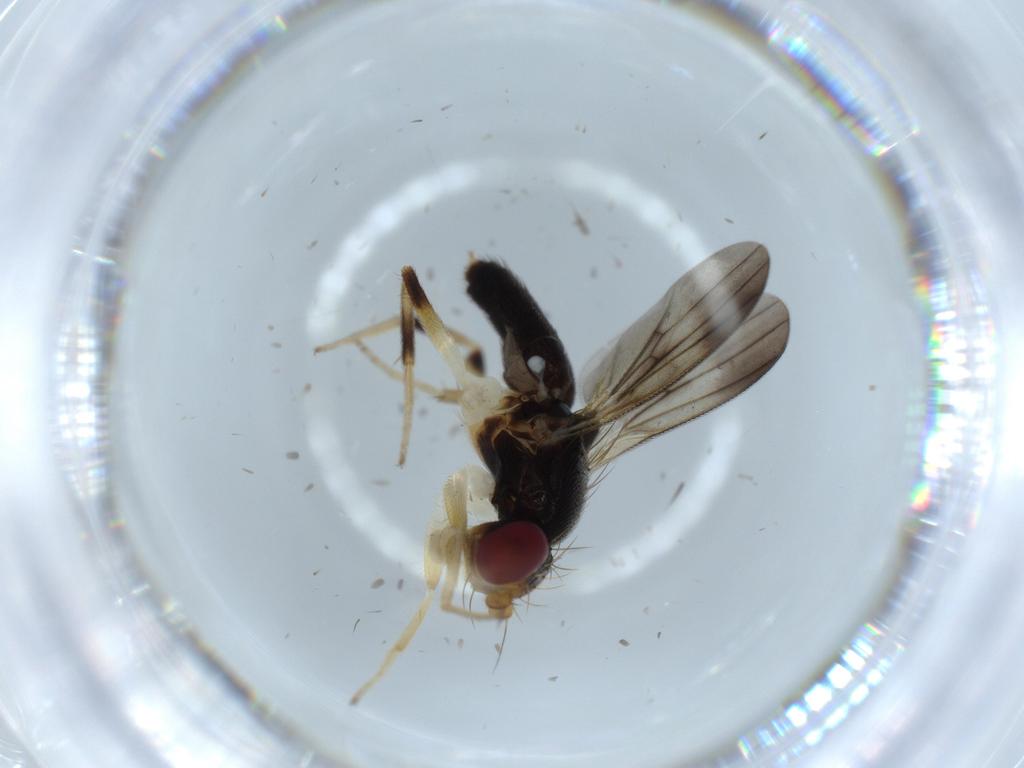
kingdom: Animalia
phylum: Arthropoda
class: Insecta
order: Diptera
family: Clusiidae
